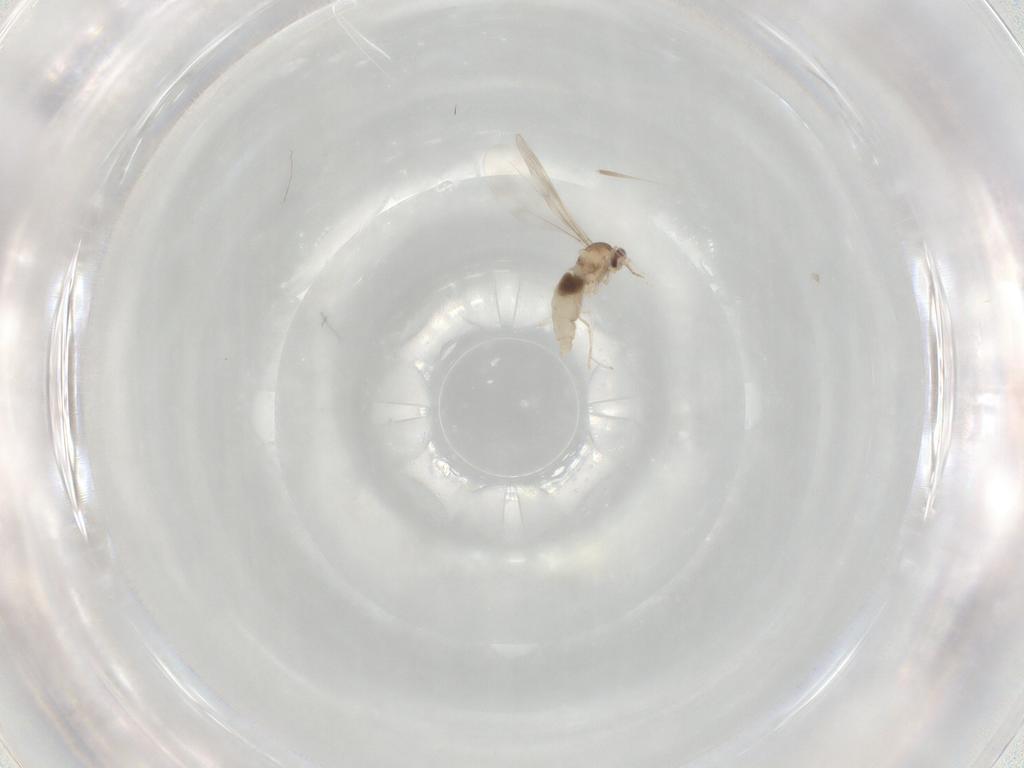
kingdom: Animalia
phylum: Arthropoda
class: Insecta
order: Diptera
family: Cecidomyiidae
